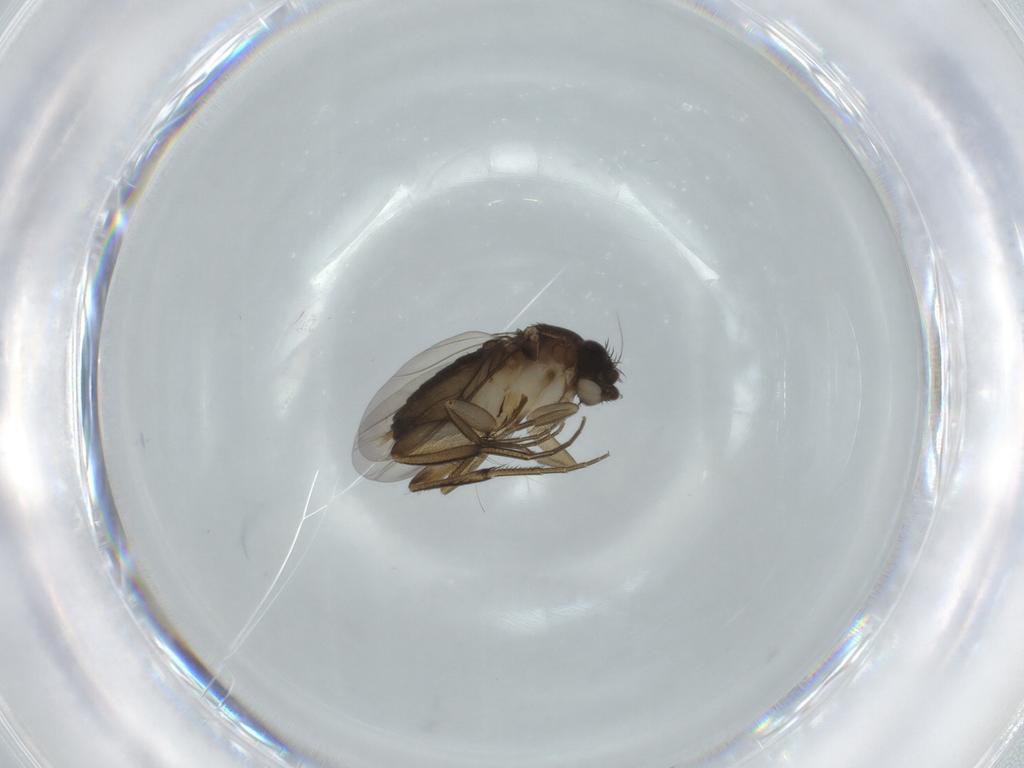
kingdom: Animalia
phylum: Arthropoda
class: Insecta
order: Diptera
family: Phoridae
